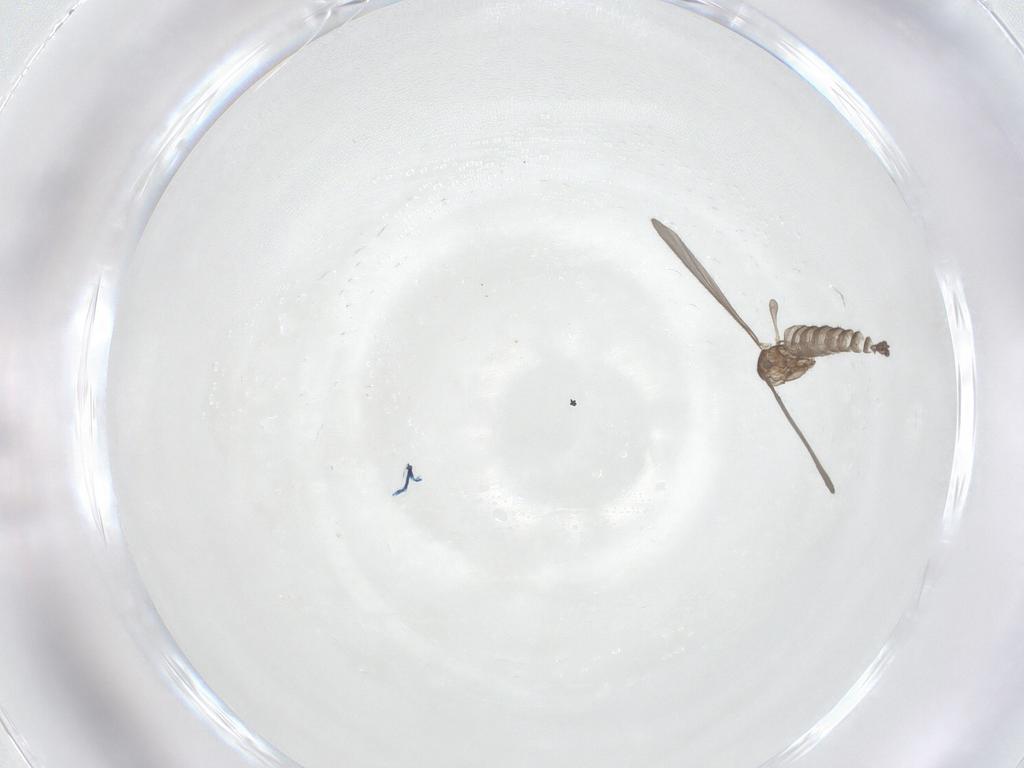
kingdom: Animalia
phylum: Arthropoda
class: Insecta
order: Diptera
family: Sciaridae
